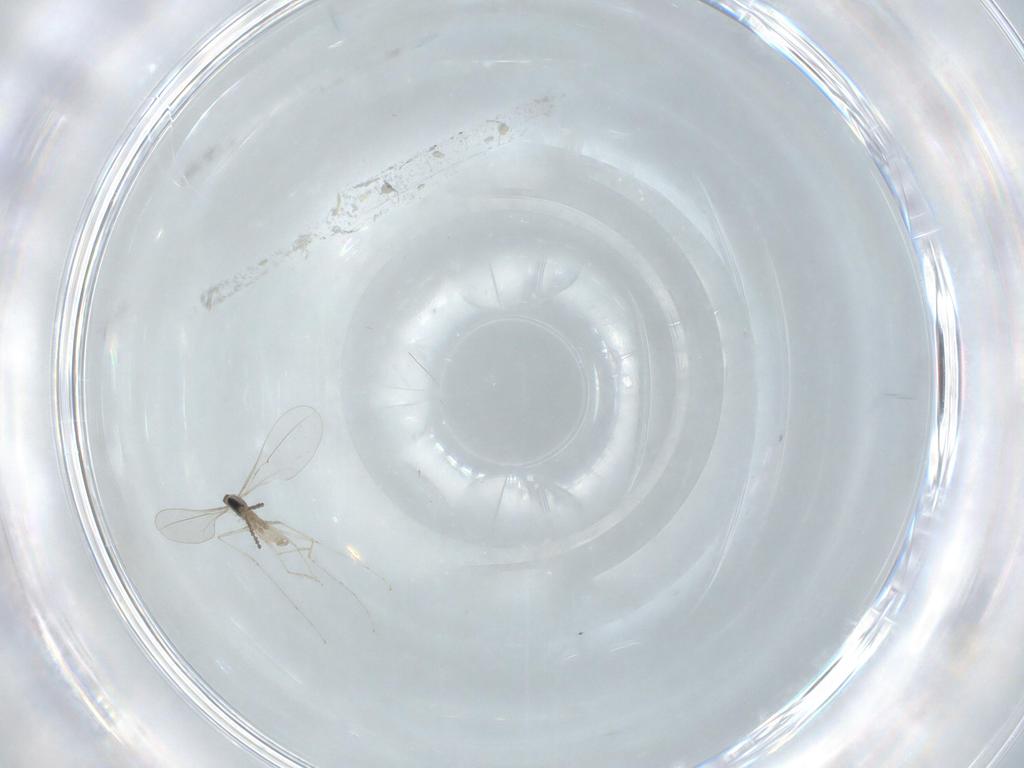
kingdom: Animalia
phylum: Arthropoda
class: Insecta
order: Diptera
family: Cecidomyiidae
